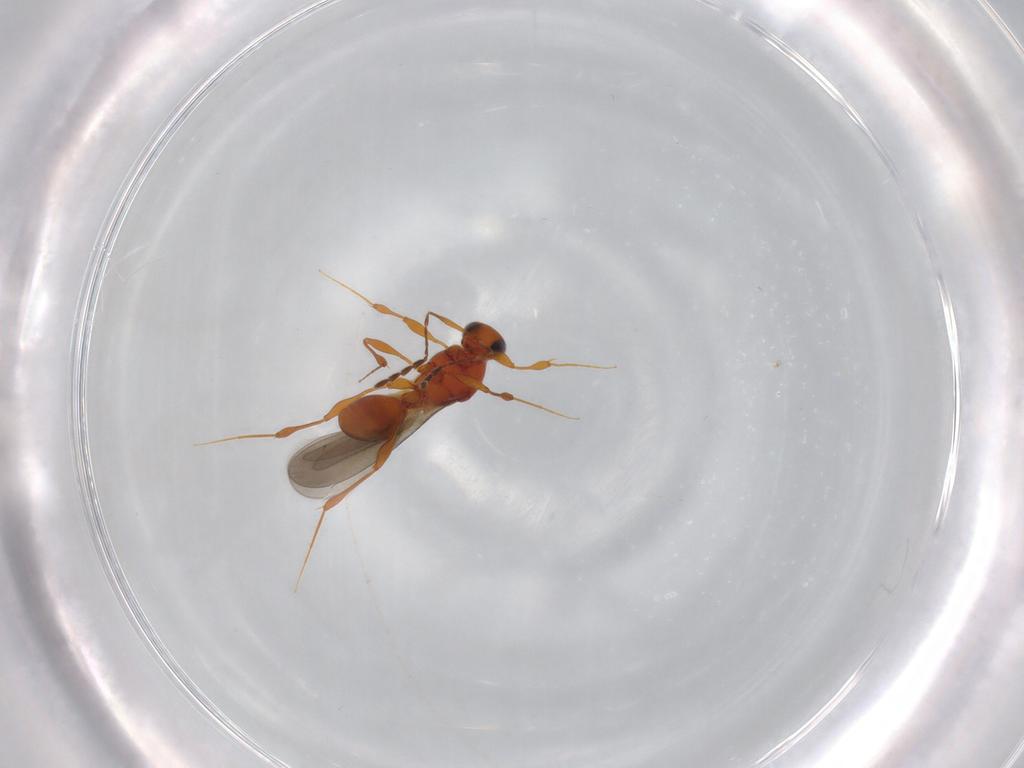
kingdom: Animalia
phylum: Arthropoda
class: Insecta
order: Hymenoptera
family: Platygastridae
